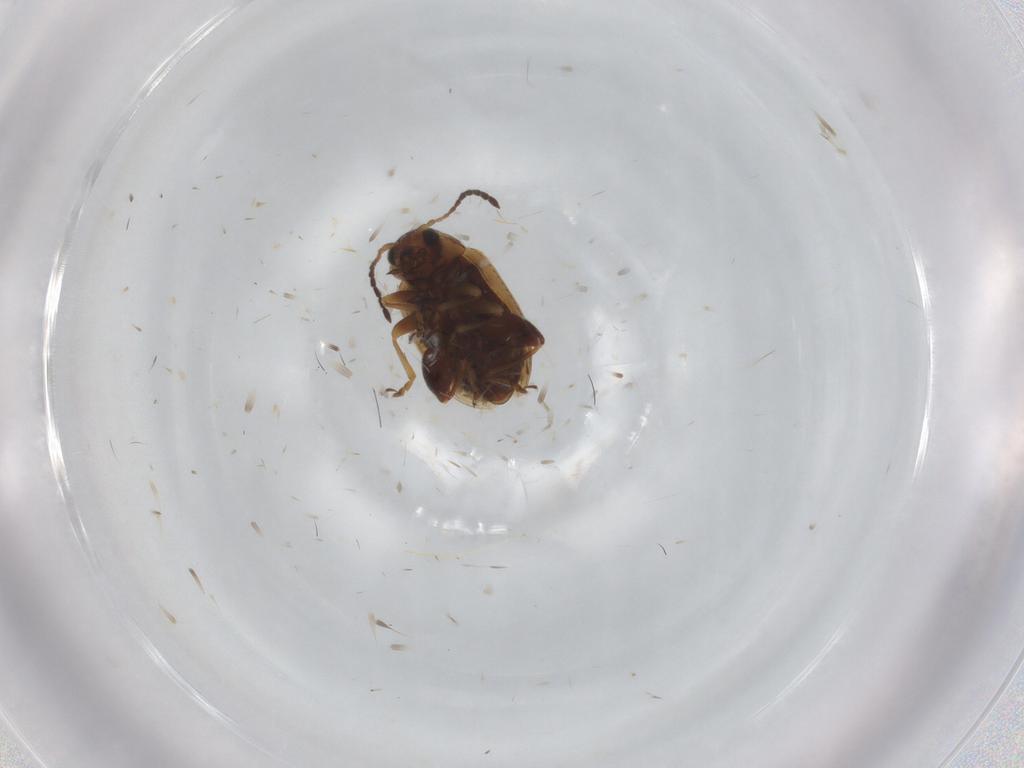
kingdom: Animalia
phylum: Arthropoda
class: Insecta
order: Coleoptera
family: Chrysomelidae
